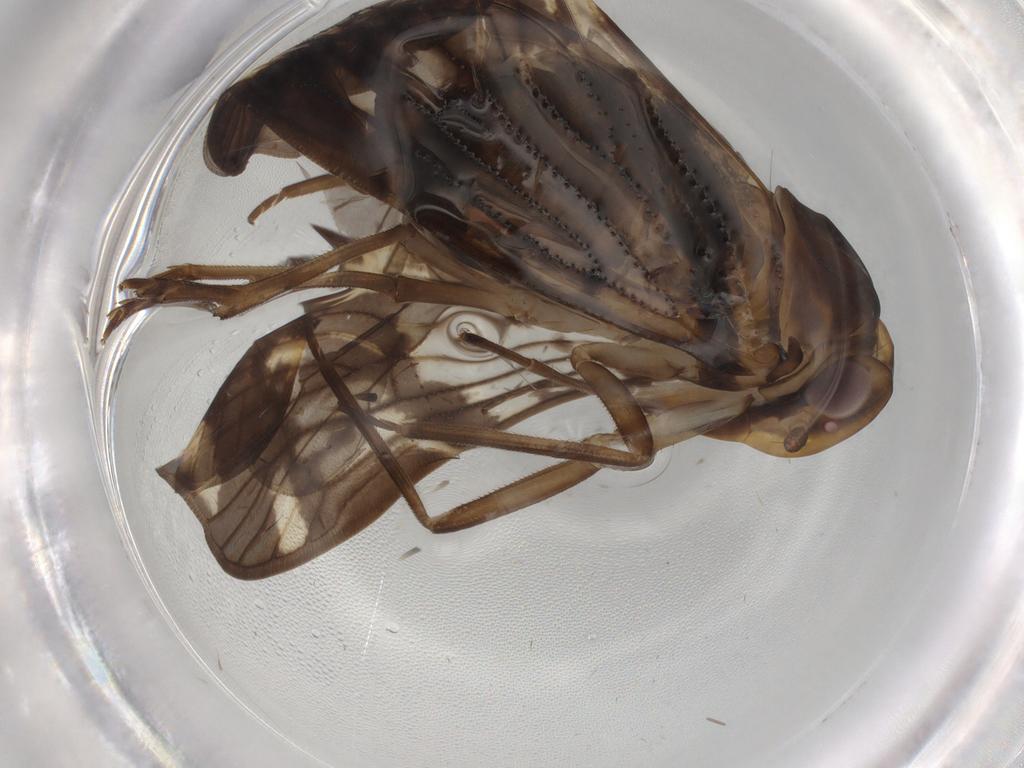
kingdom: Animalia
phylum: Arthropoda
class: Insecta
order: Hemiptera
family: Cixiidae
